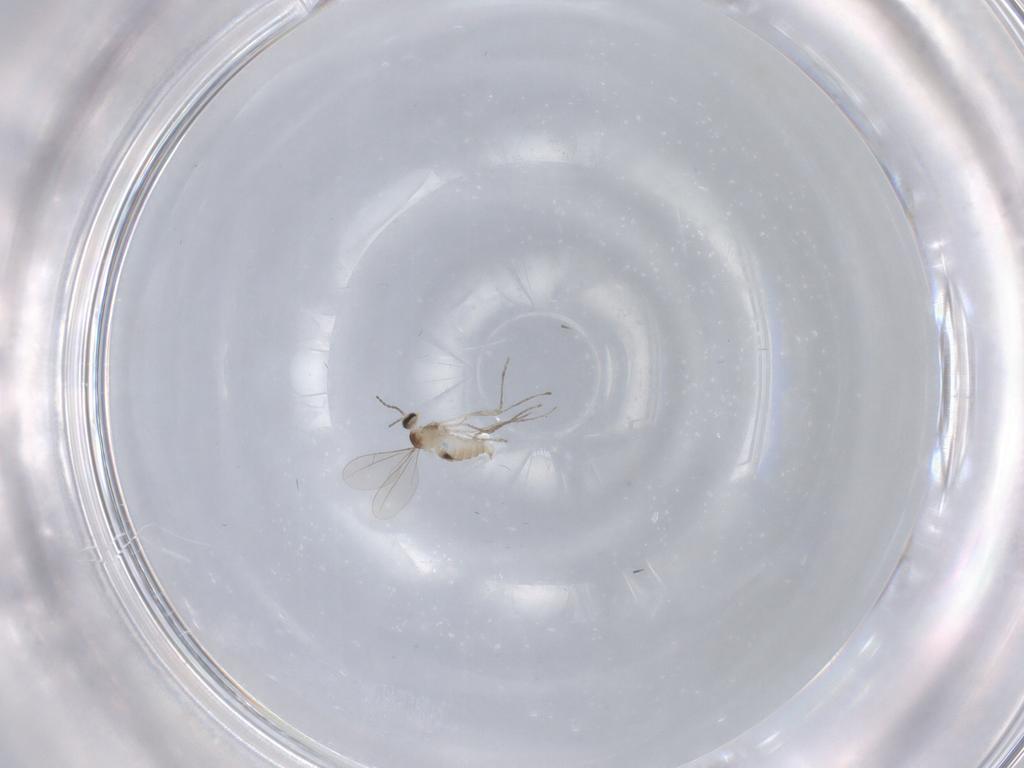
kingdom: Animalia
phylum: Arthropoda
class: Insecta
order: Diptera
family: Cecidomyiidae
